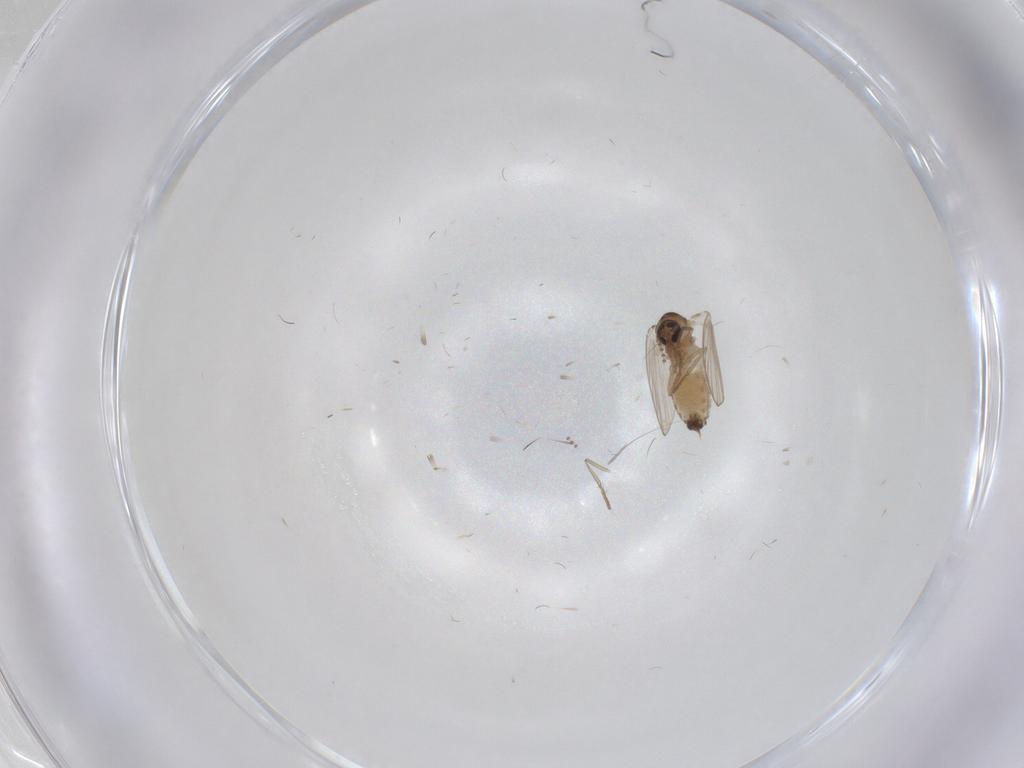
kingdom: Animalia
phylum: Arthropoda
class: Insecta
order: Diptera
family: Psychodidae
